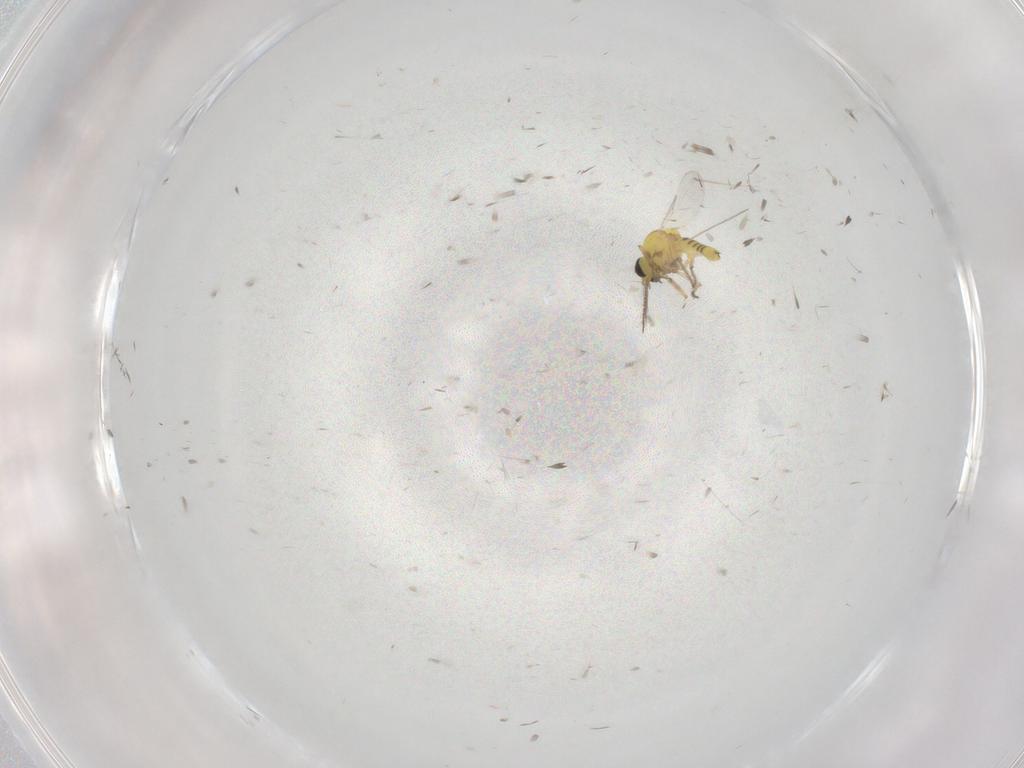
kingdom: Animalia
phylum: Arthropoda
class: Insecta
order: Diptera
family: Ceratopogonidae
